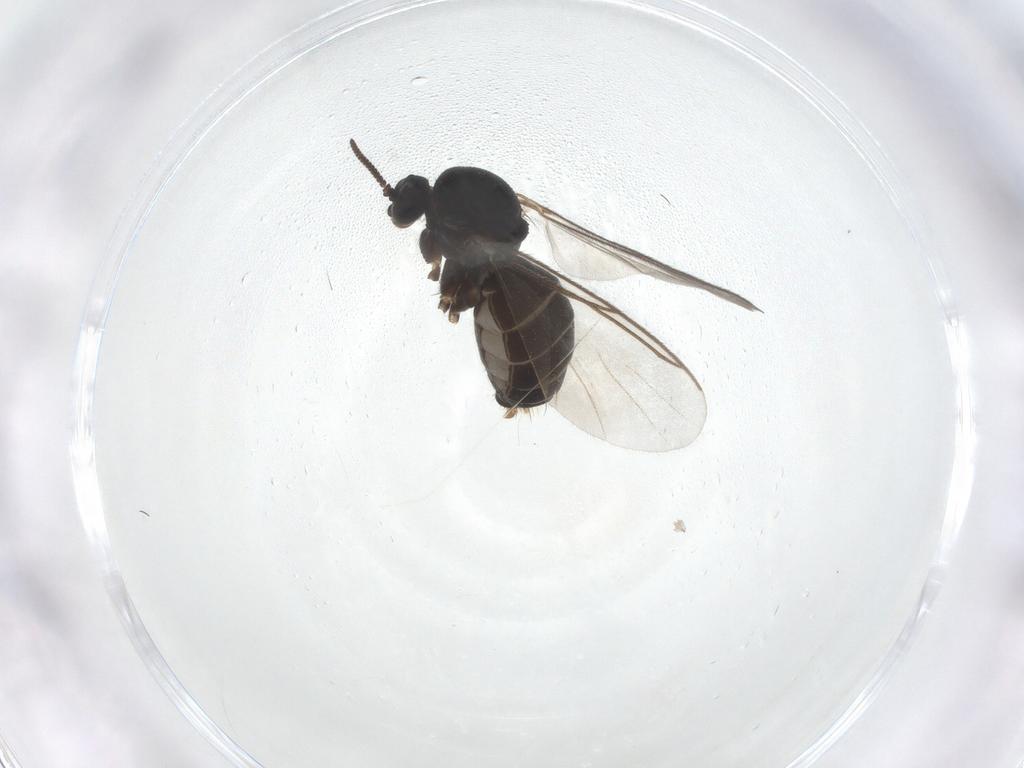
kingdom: Animalia
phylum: Arthropoda
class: Insecta
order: Diptera
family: Mycetophilidae
